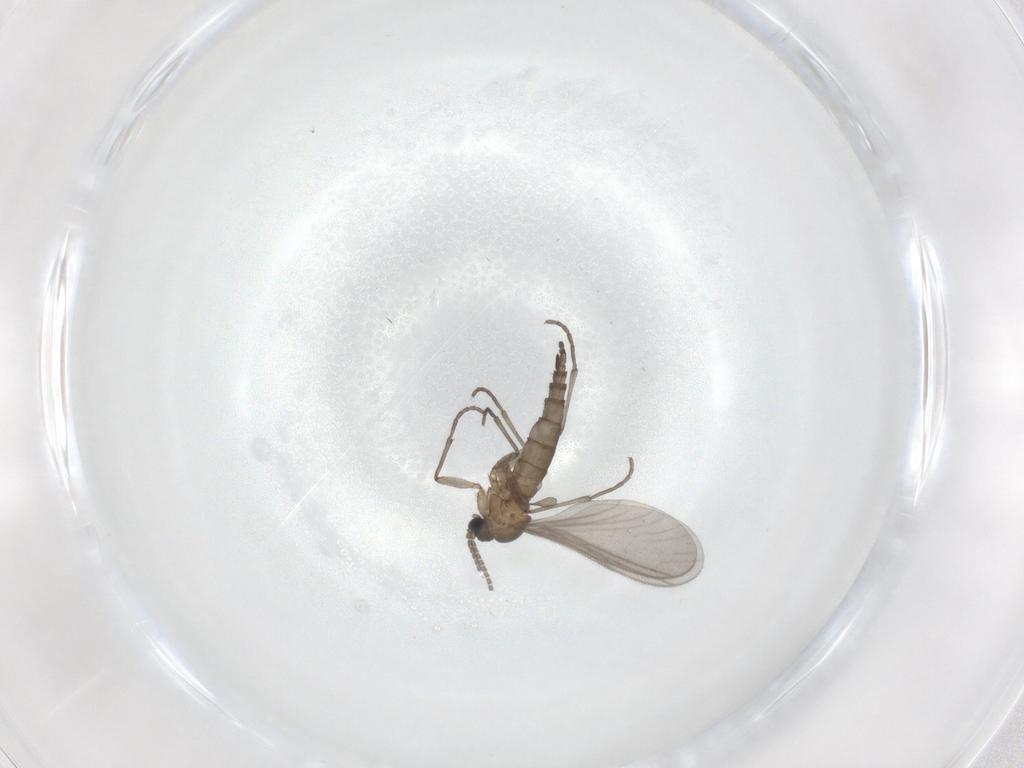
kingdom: Animalia
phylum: Arthropoda
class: Insecta
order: Diptera
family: Sciaridae
